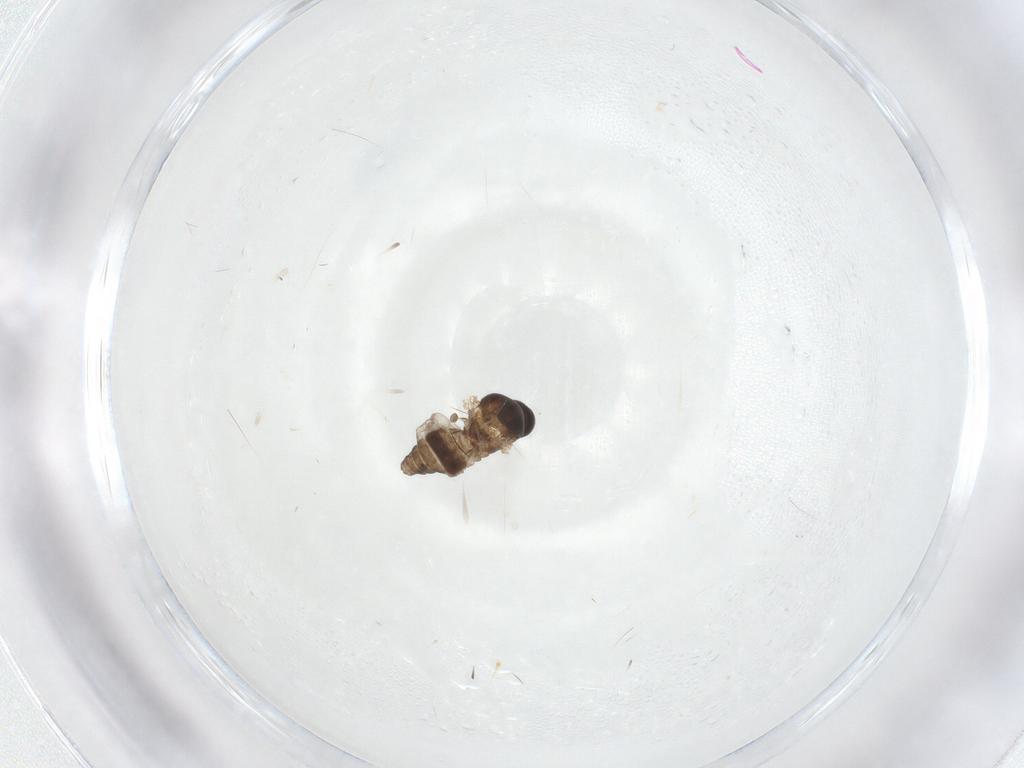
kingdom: Animalia
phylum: Arthropoda
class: Insecta
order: Diptera
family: Ceratopogonidae
